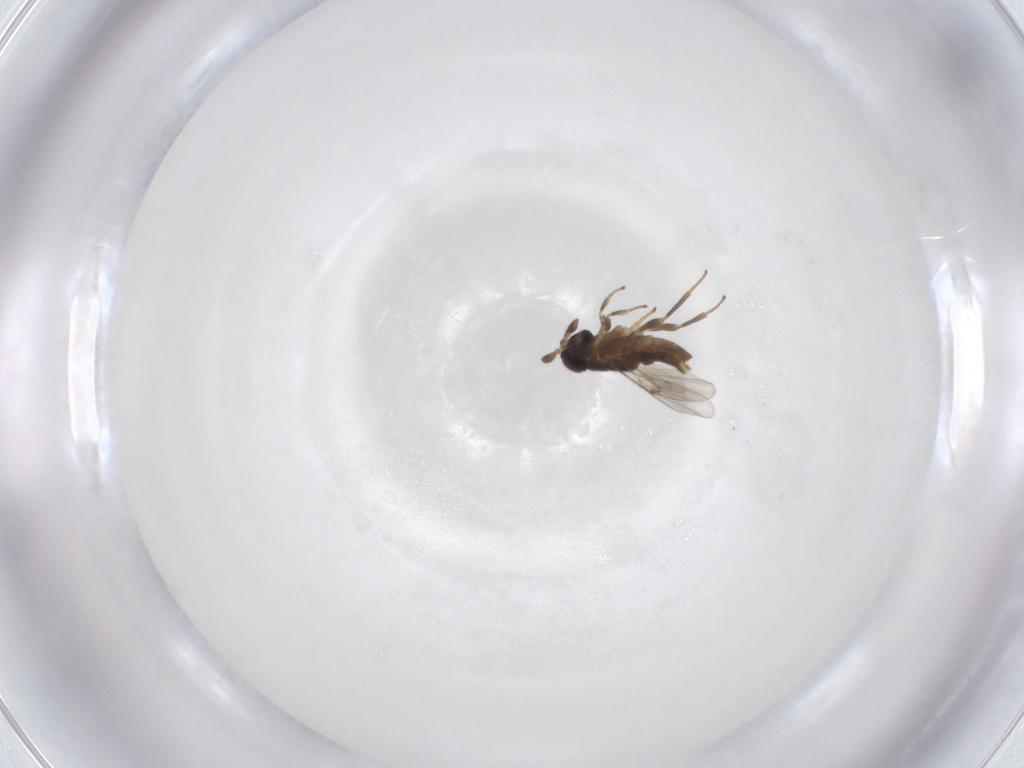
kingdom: Animalia
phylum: Arthropoda
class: Insecta
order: Hymenoptera
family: Encyrtidae
